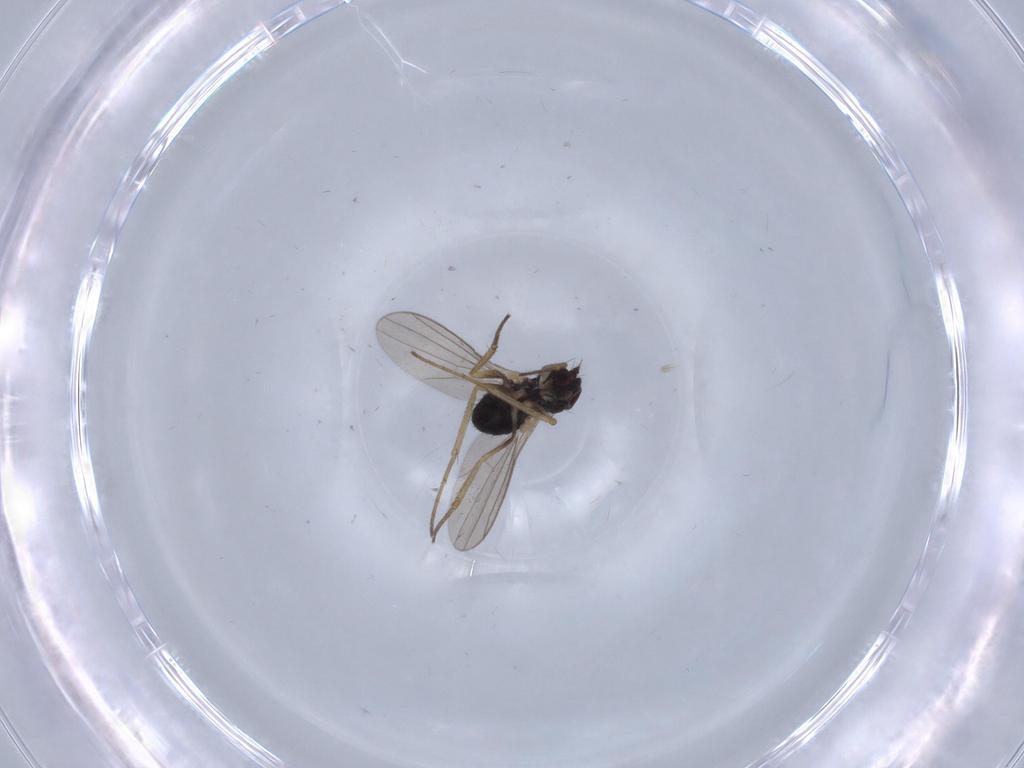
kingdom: Animalia
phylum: Arthropoda
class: Insecta
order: Diptera
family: Dolichopodidae
